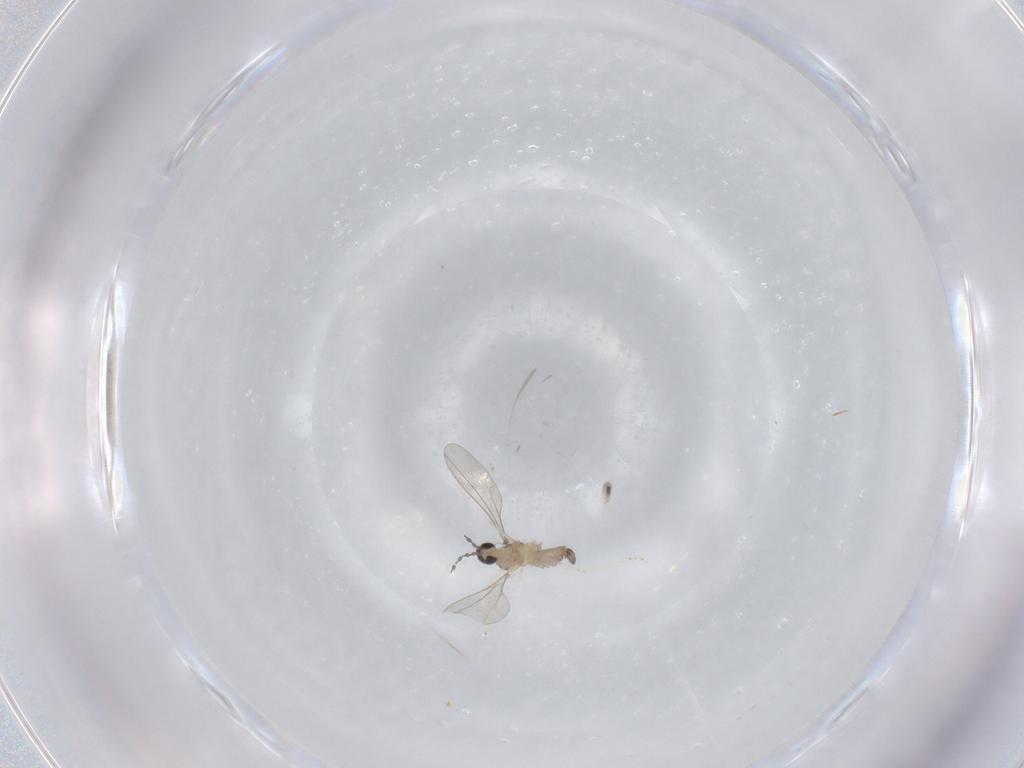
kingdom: Animalia
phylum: Arthropoda
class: Insecta
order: Diptera
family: Cecidomyiidae
